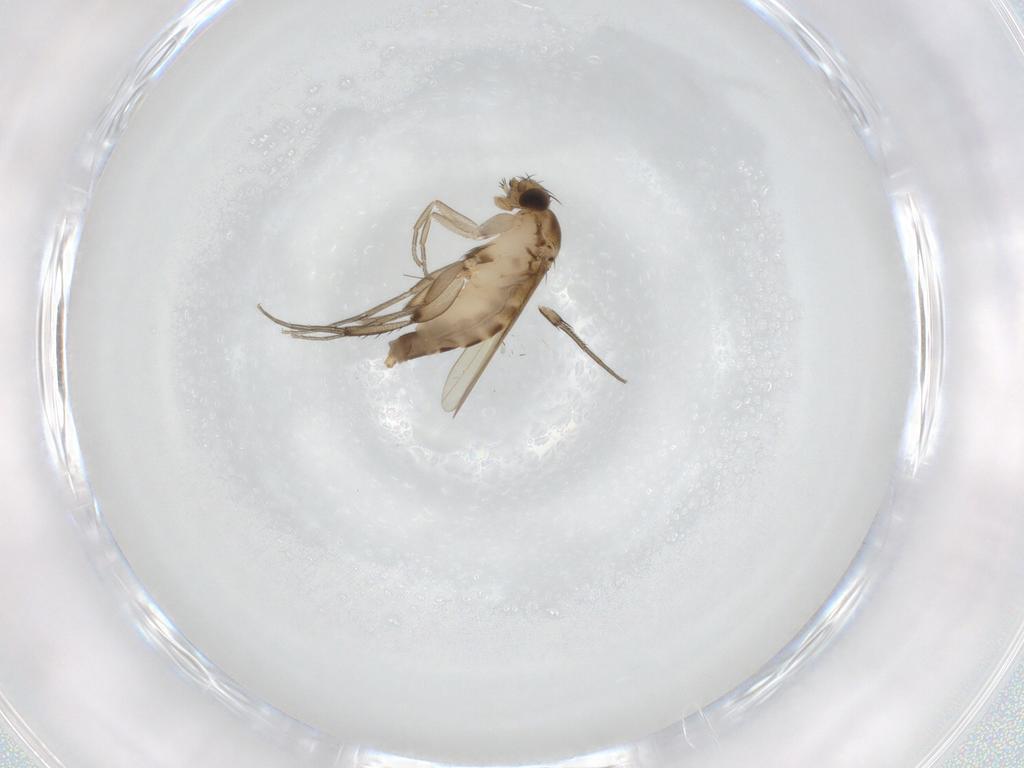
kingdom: Animalia
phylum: Arthropoda
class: Insecta
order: Diptera
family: Phoridae
